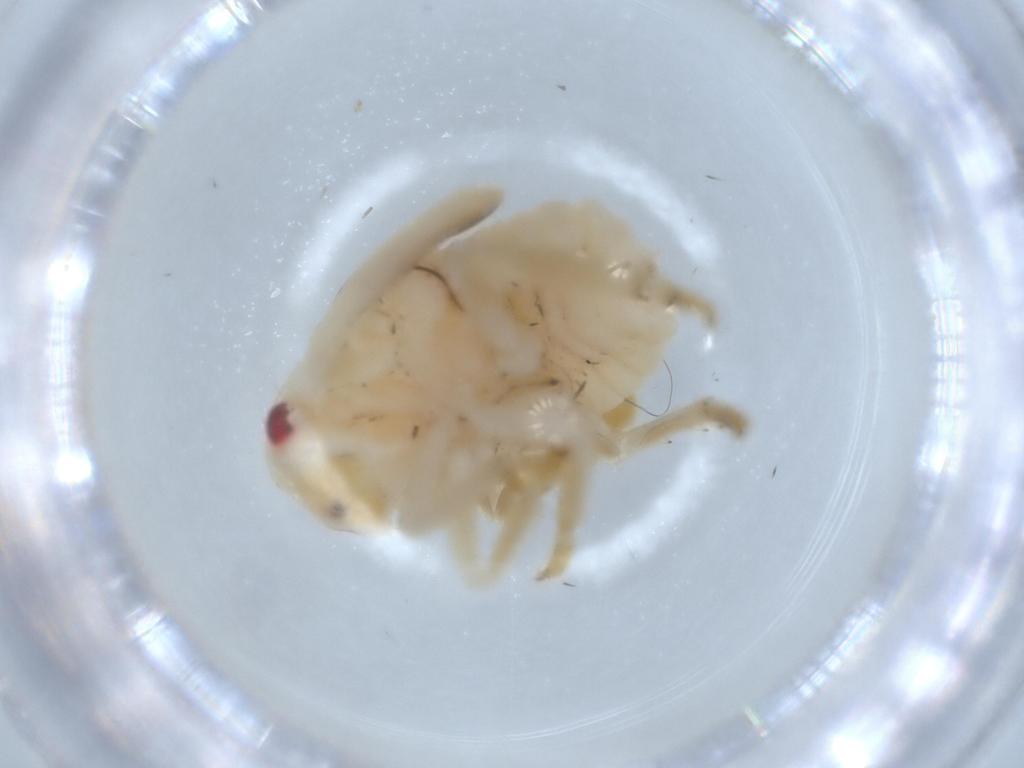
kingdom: Animalia
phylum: Arthropoda
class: Insecta
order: Hemiptera
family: Flatidae
